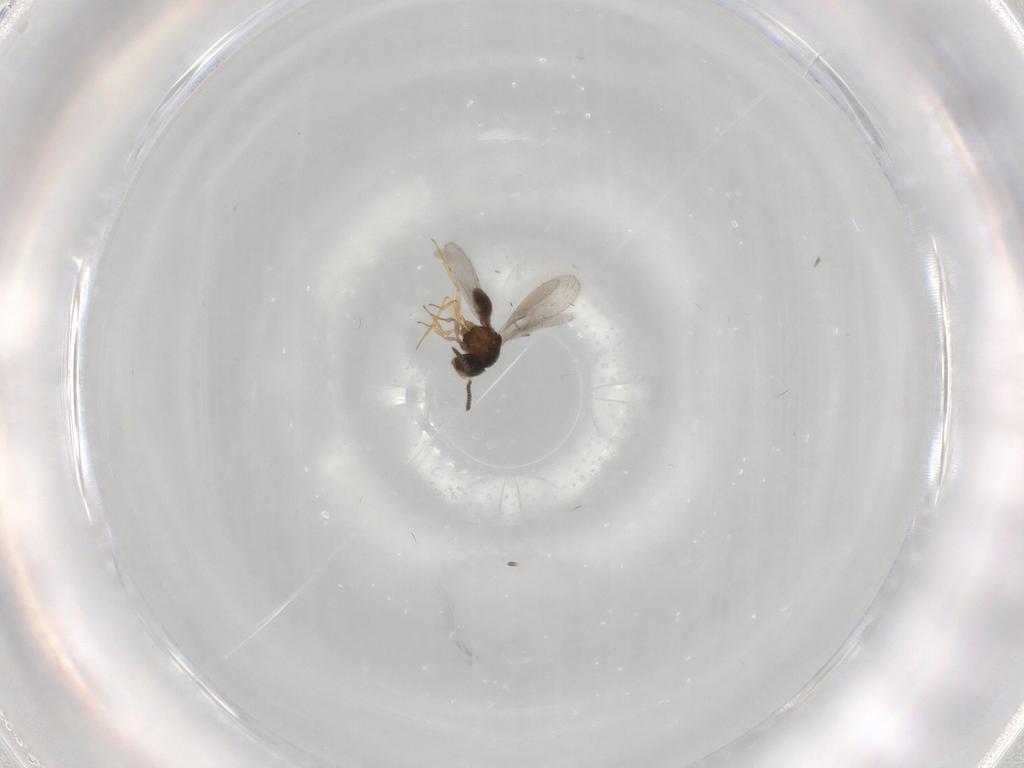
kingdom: Animalia
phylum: Arthropoda
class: Insecta
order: Hymenoptera
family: Scelionidae
